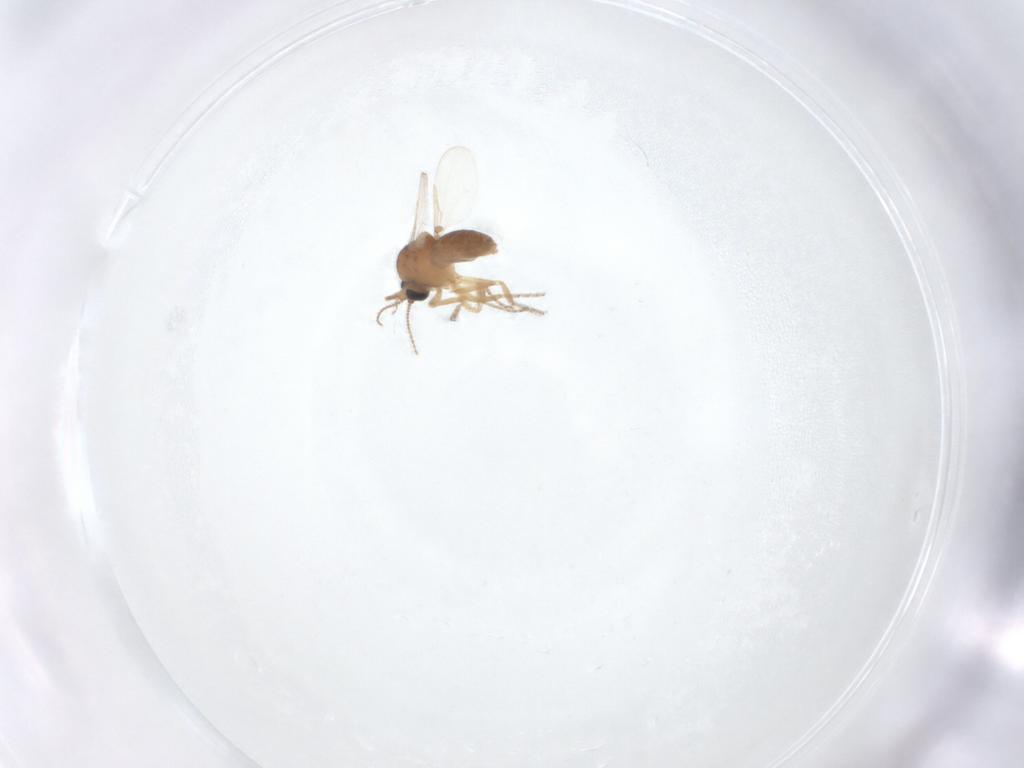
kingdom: Animalia
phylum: Arthropoda
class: Insecta
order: Diptera
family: Ceratopogonidae
